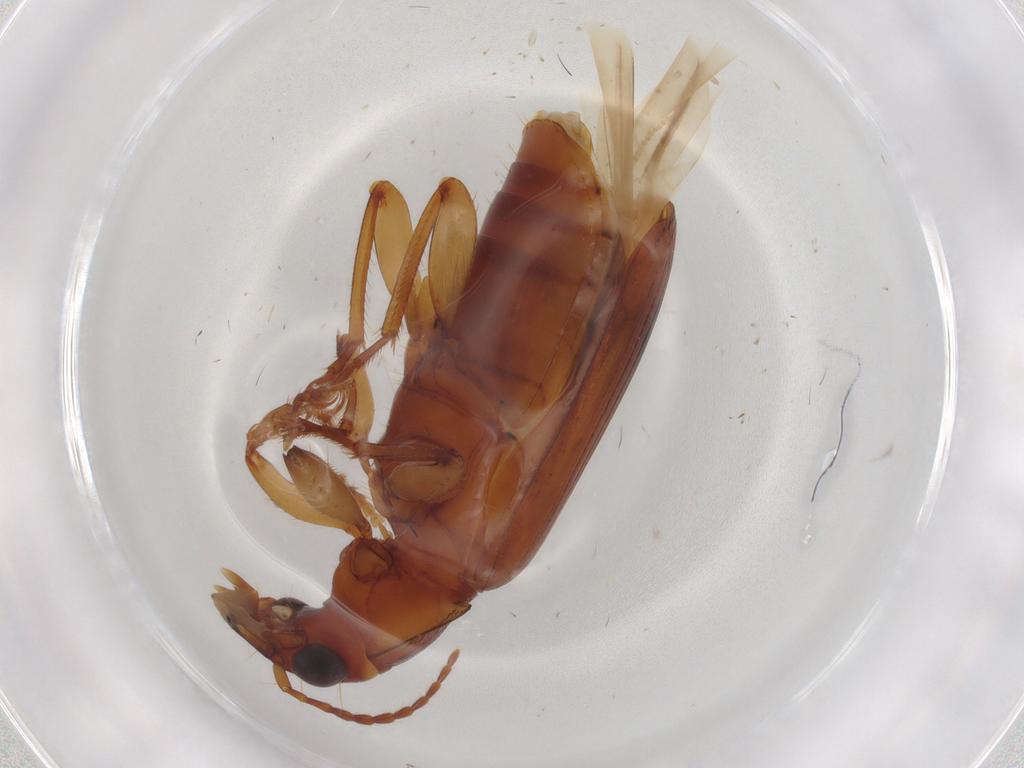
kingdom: Animalia
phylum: Arthropoda
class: Insecta
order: Coleoptera
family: Carabidae
